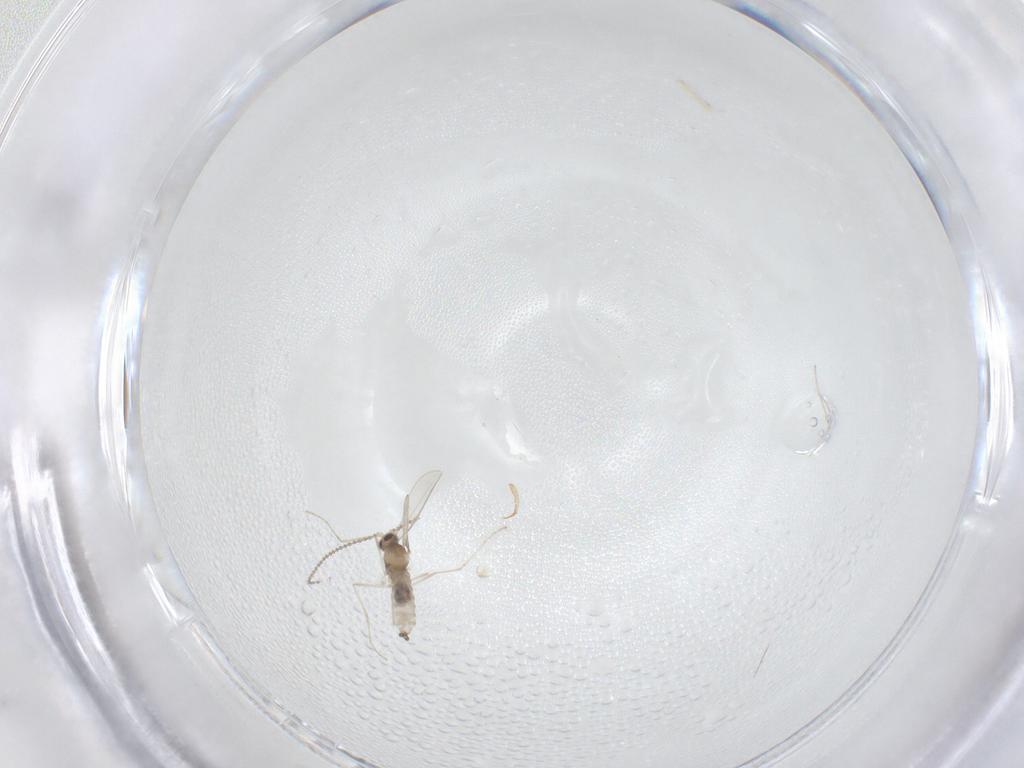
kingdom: Animalia
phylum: Arthropoda
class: Insecta
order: Diptera
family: Cecidomyiidae
